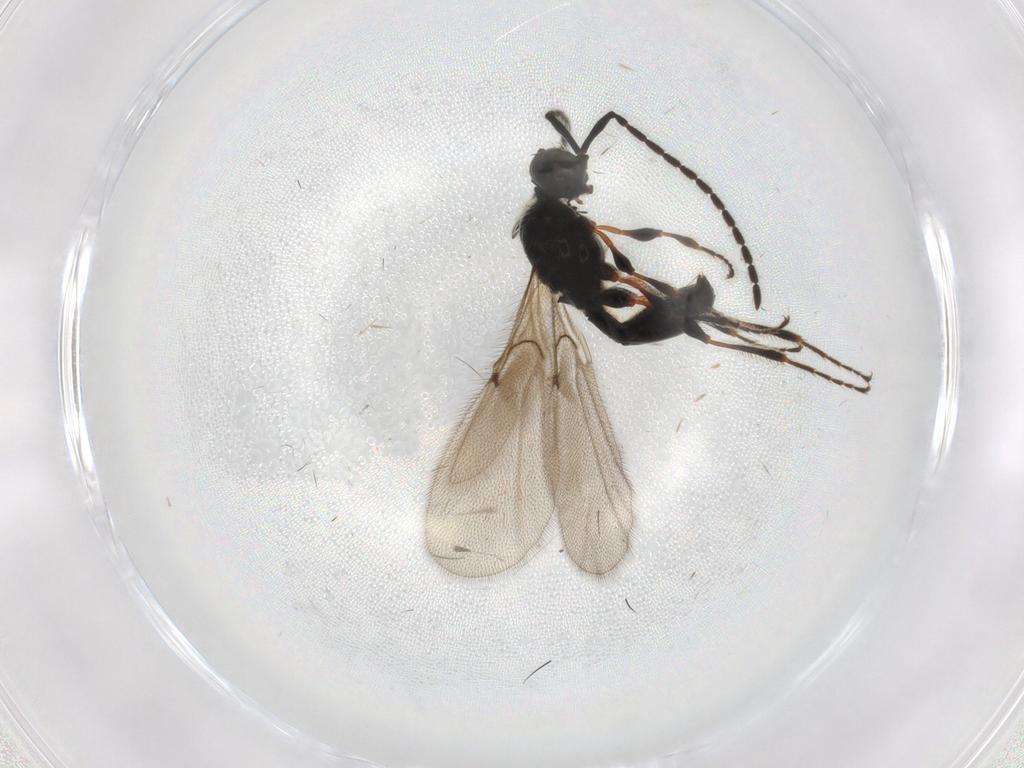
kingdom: Animalia
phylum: Arthropoda
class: Insecta
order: Hymenoptera
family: Diapriidae
